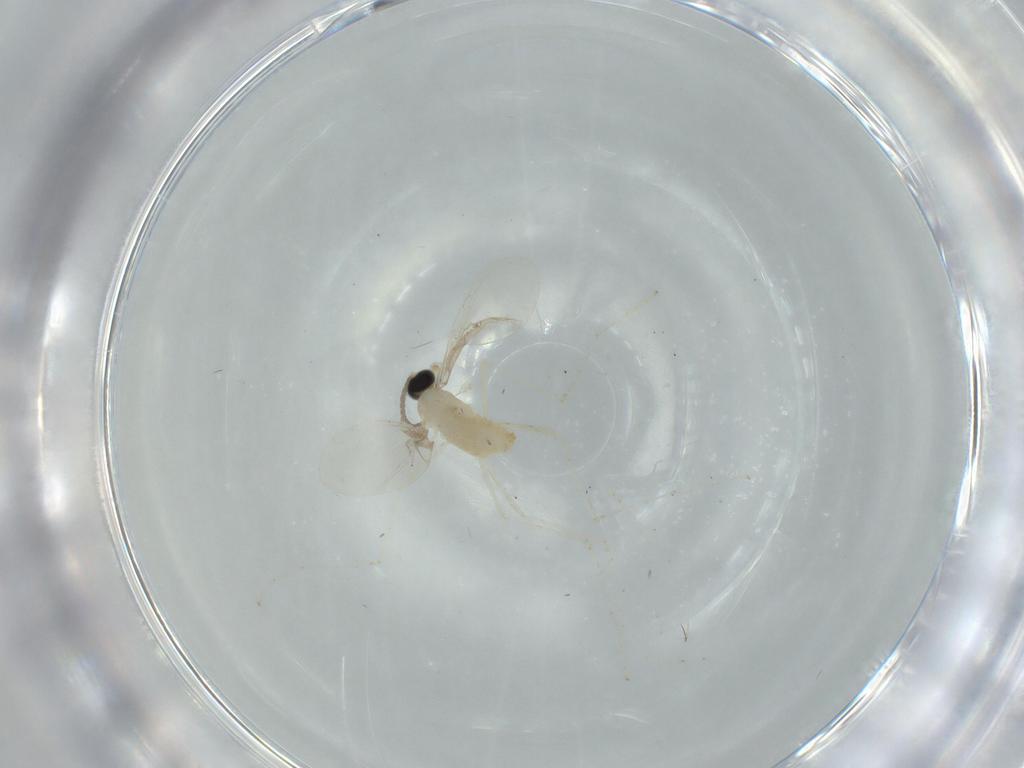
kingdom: Animalia
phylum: Arthropoda
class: Insecta
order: Diptera
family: Cecidomyiidae
